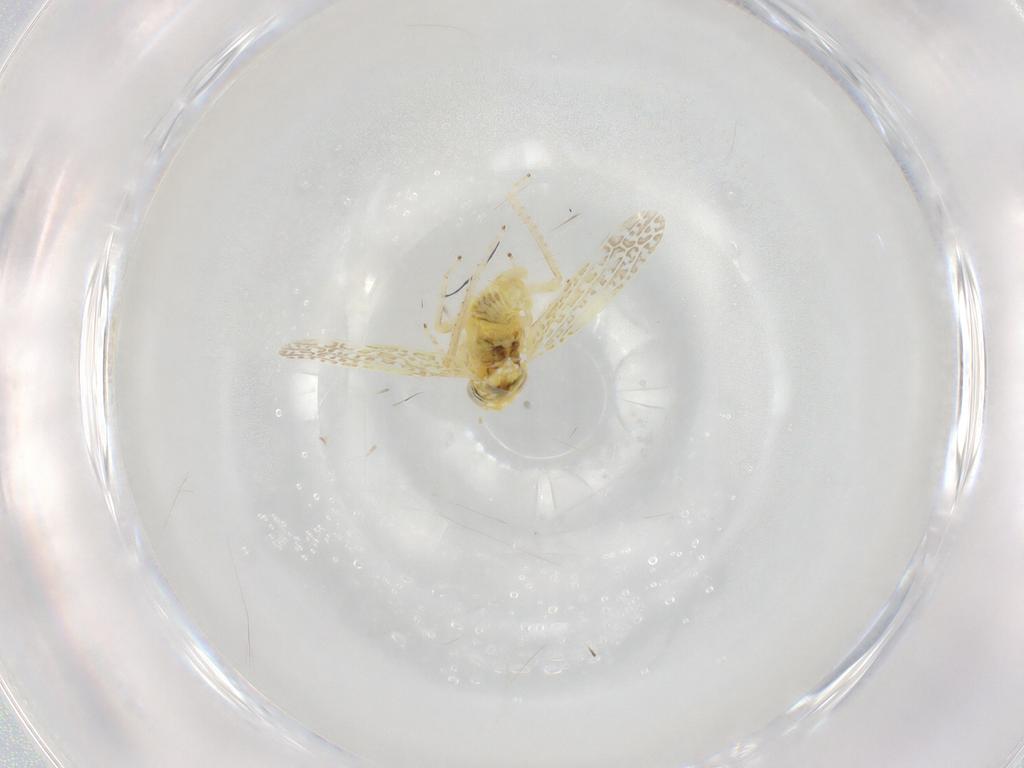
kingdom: Animalia
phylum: Arthropoda
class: Insecta
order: Hemiptera
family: Cicadellidae
